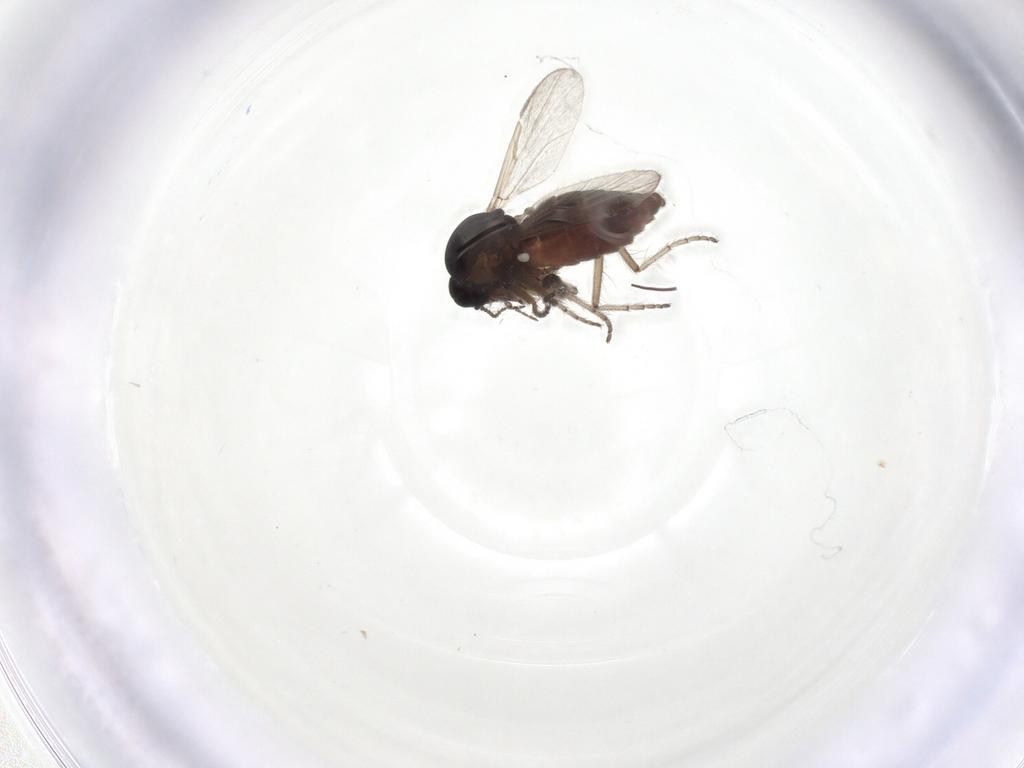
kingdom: Animalia
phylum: Arthropoda
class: Insecta
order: Diptera
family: Ceratopogonidae
